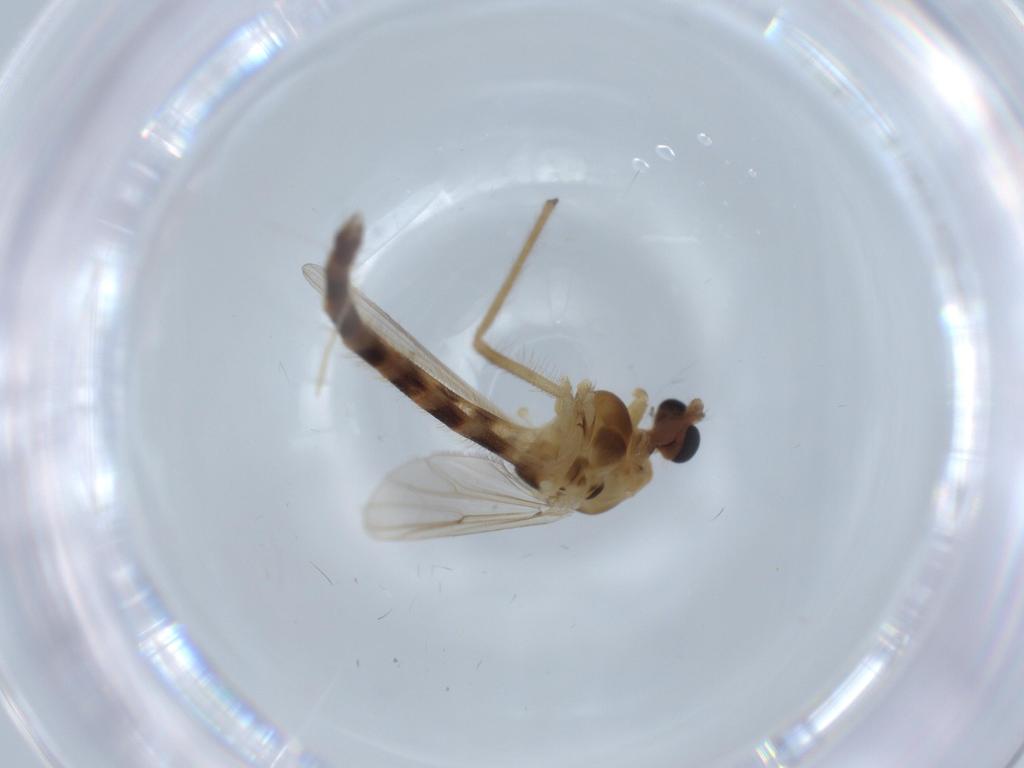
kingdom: Animalia
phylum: Arthropoda
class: Insecta
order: Diptera
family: Chironomidae
